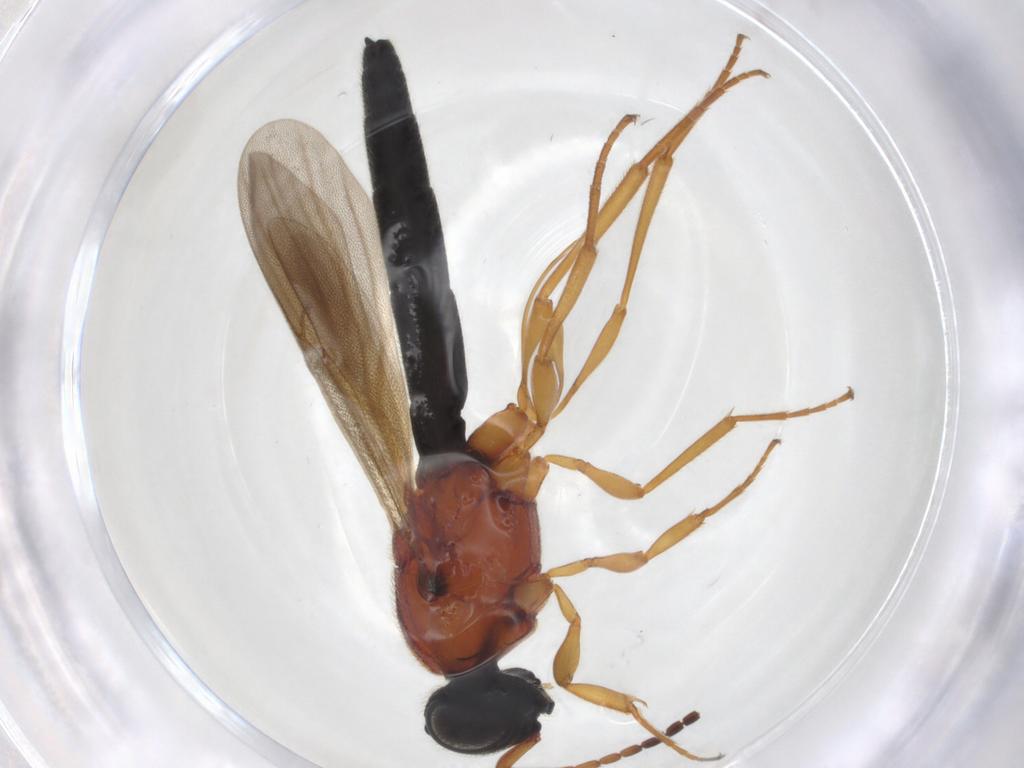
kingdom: Animalia
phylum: Arthropoda
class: Insecta
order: Hymenoptera
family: Scelionidae
